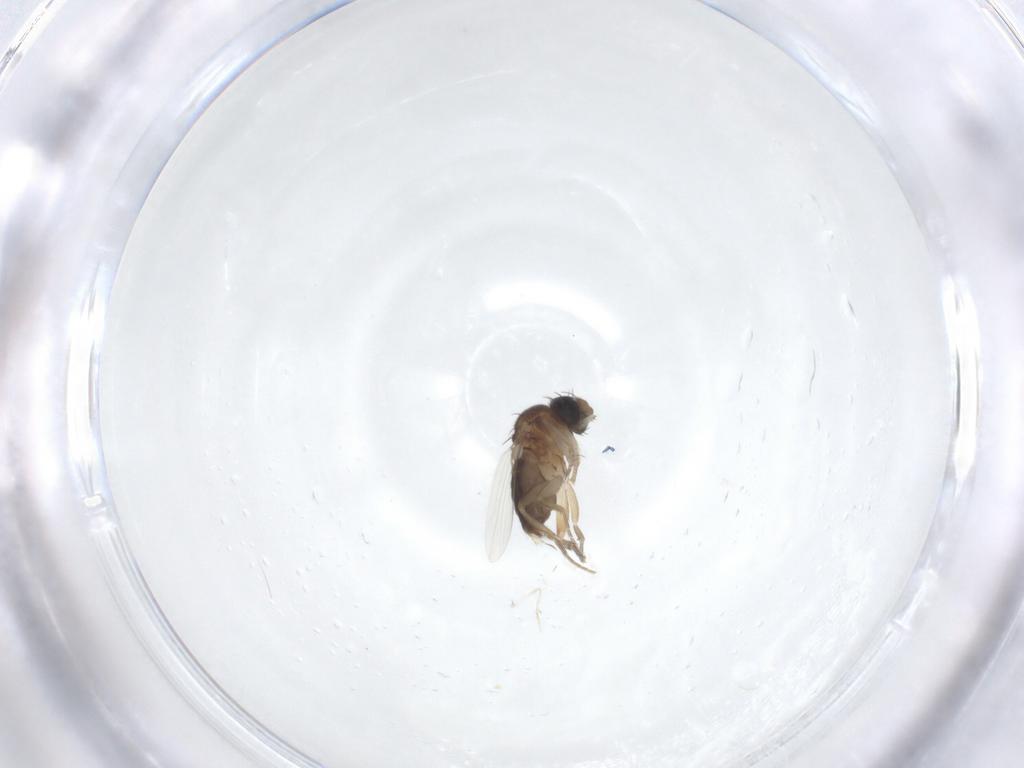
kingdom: Animalia
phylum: Arthropoda
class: Insecta
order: Diptera
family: Phoridae
